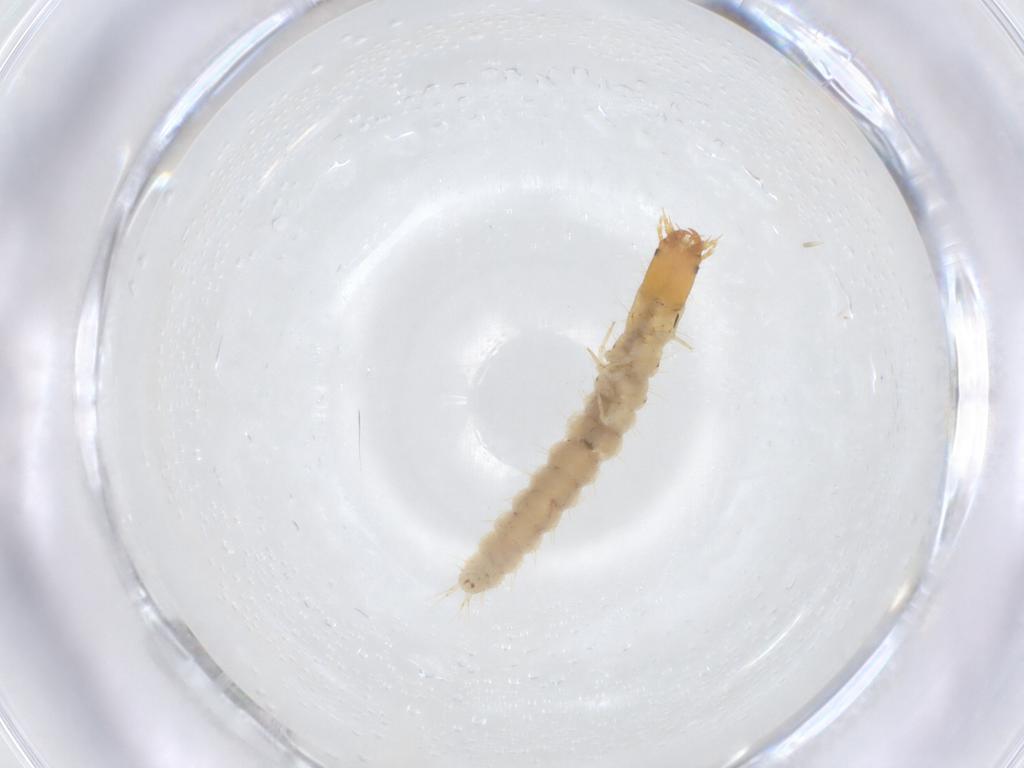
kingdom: Animalia
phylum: Arthropoda
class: Insecta
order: Coleoptera
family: Carabidae
